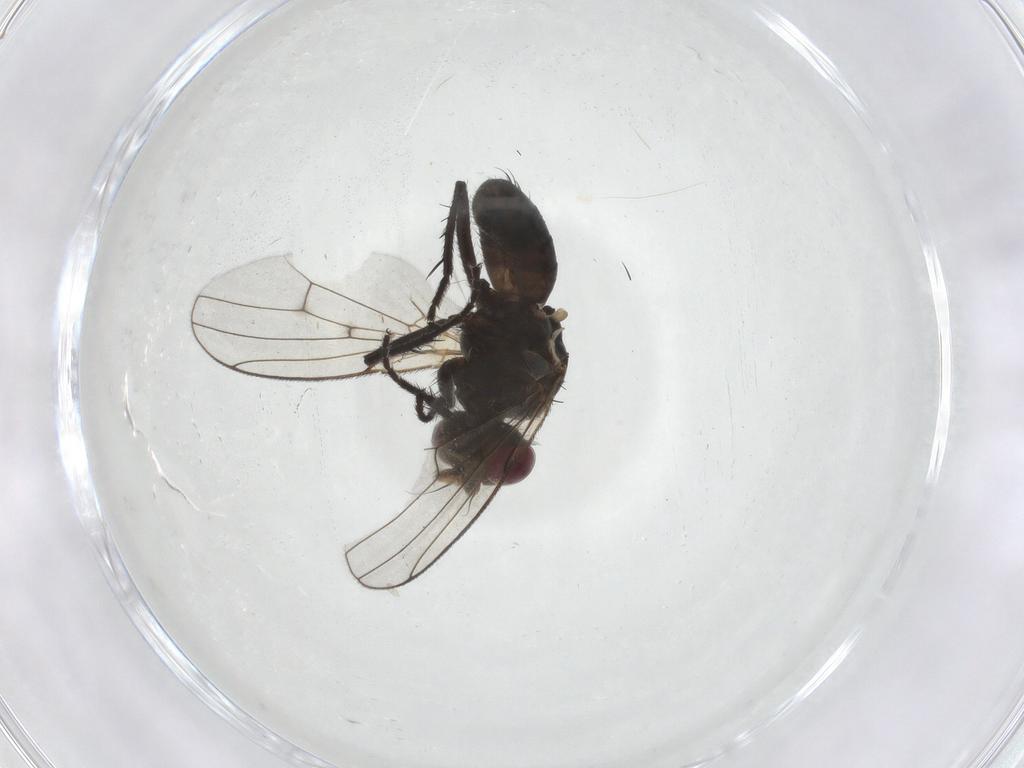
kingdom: Animalia
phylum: Arthropoda
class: Insecta
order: Diptera
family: Muscidae
